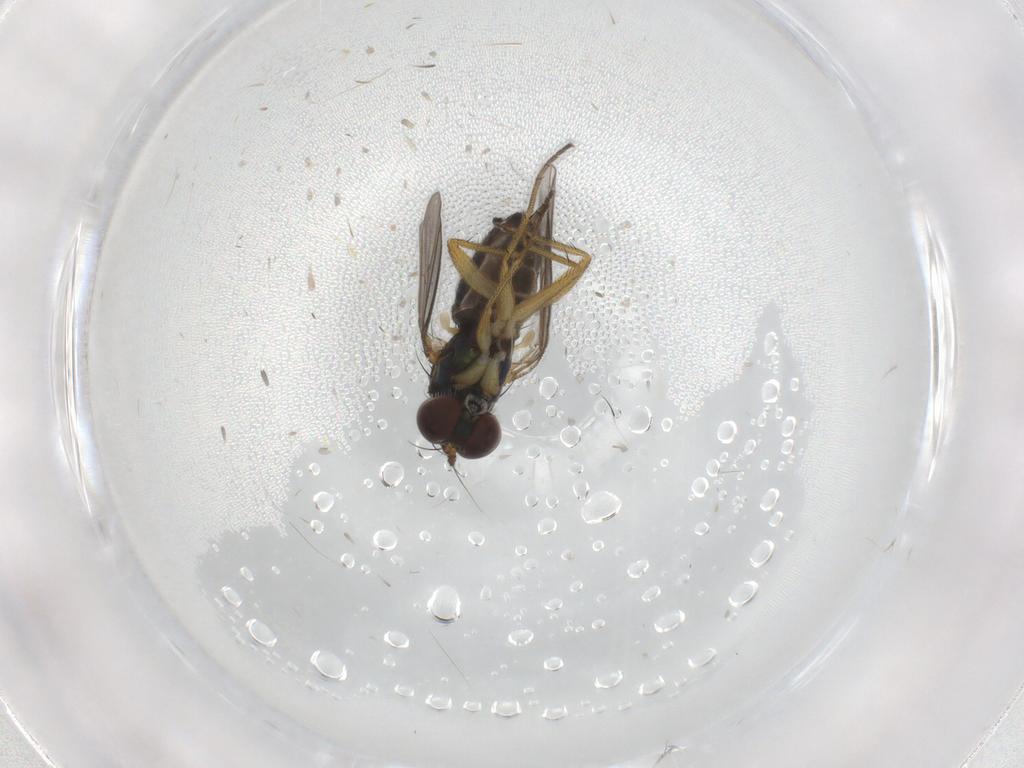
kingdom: Animalia
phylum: Arthropoda
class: Insecta
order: Diptera
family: Dolichopodidae
